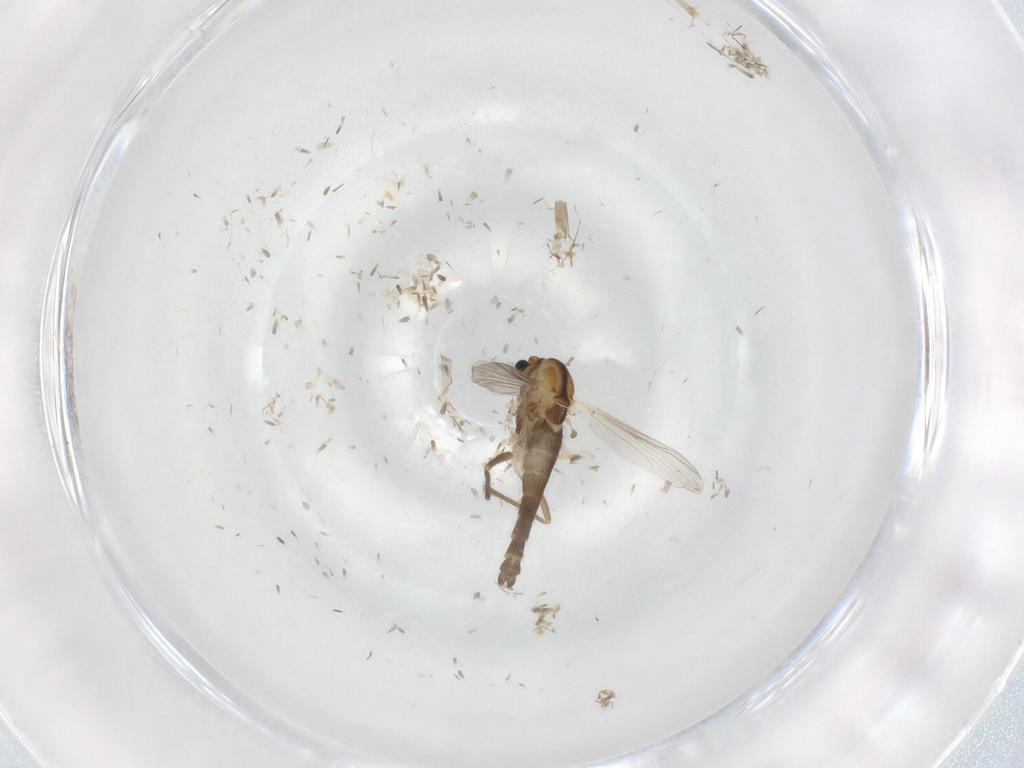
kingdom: Animalia
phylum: Arthropoda
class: Insecta
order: Diptera
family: Chironomidae
